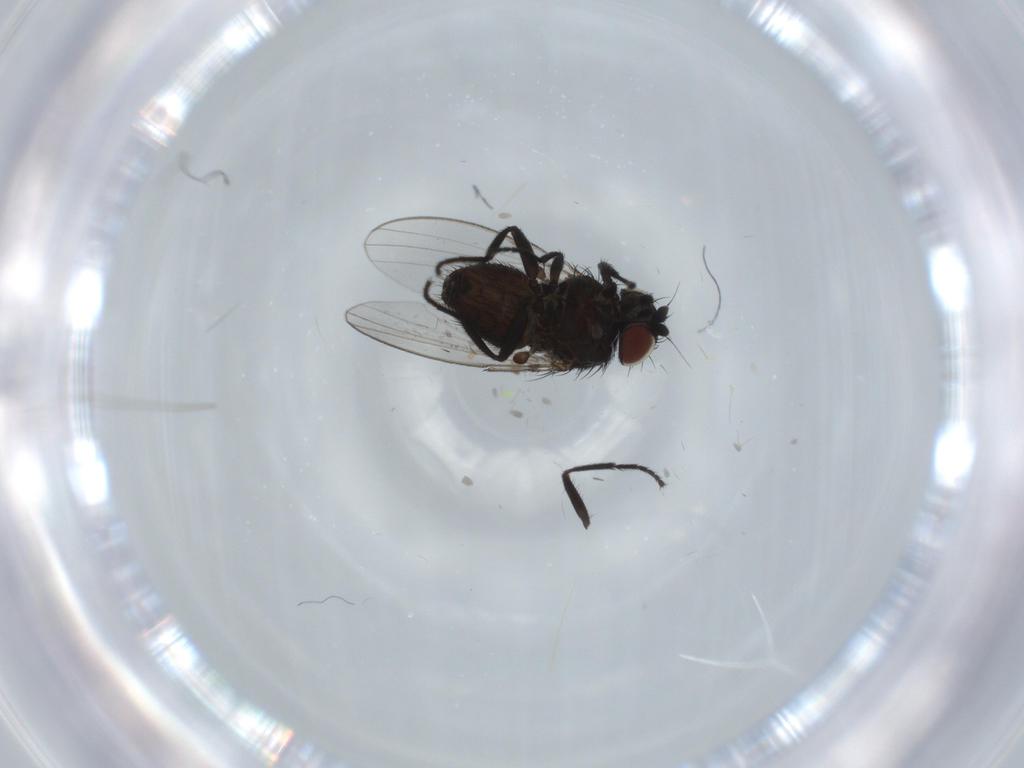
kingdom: Animalia
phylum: Arthropoda
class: Insecta
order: Diptera
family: Milichiidae
